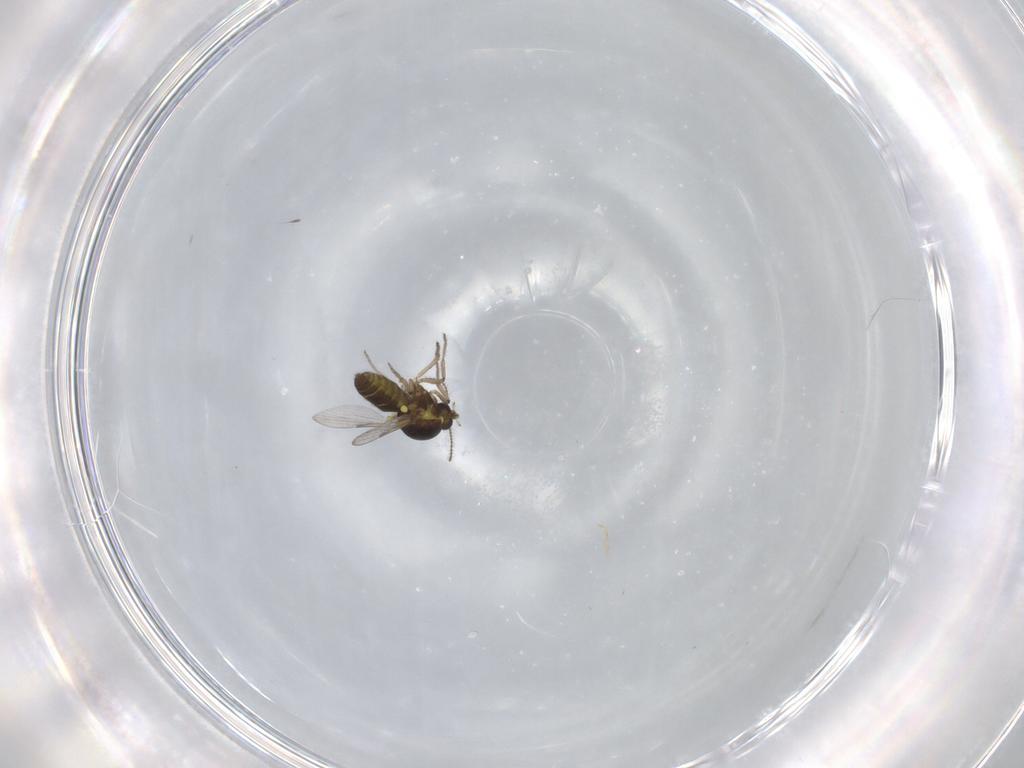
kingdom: Animalia
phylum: Arthropoda
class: Insecta
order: Diptera
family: Ceratopogonidae
